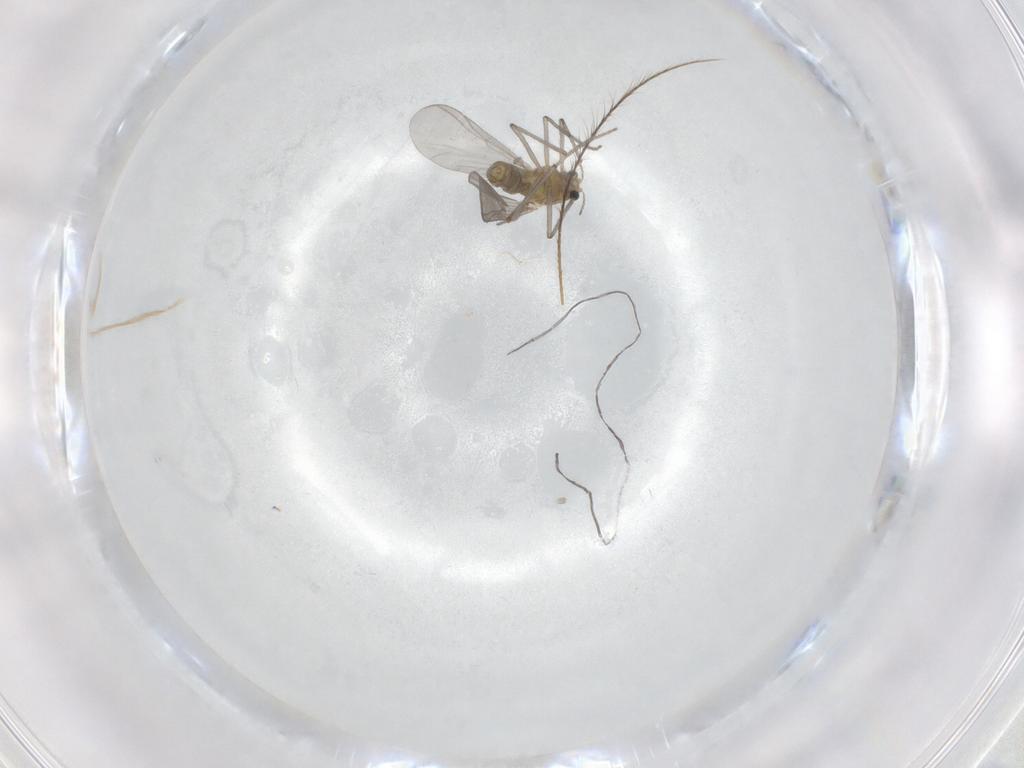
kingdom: Animalia
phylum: Arthropoda
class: Insecta
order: Diptera
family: Chironomidae
